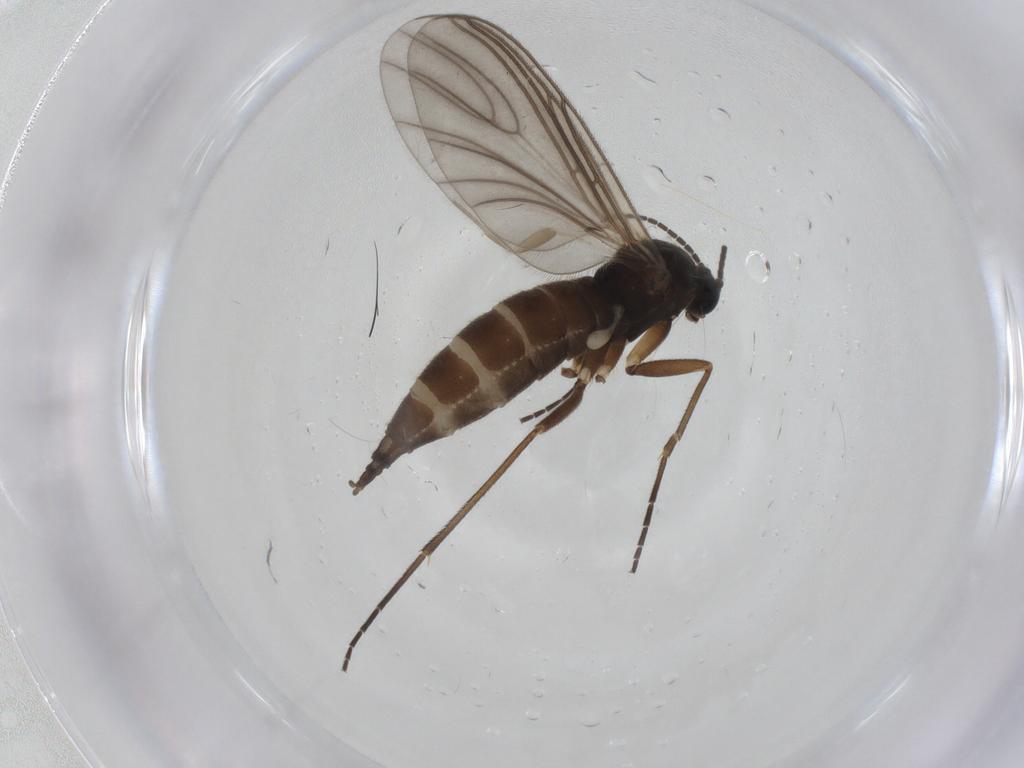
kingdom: Animalia
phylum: Arthropoda
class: Insecta
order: Diptera
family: Sciaridae
